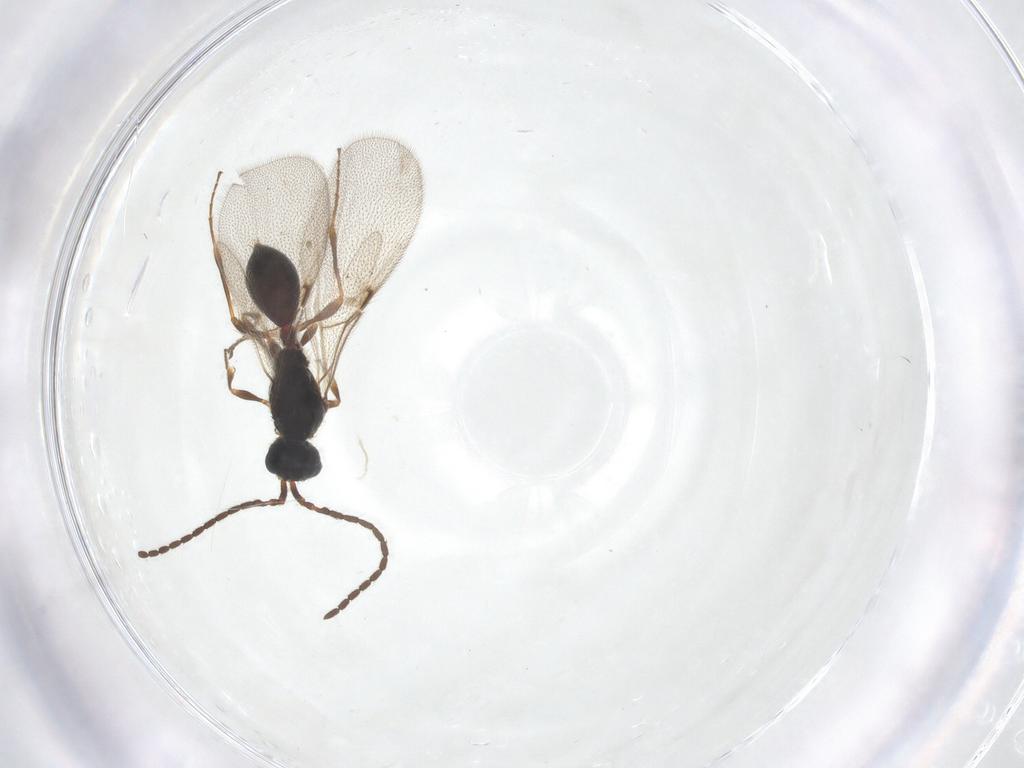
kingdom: Animalia
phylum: Arthropoda
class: Insecta
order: Hymenoptera
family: Diapriidae
